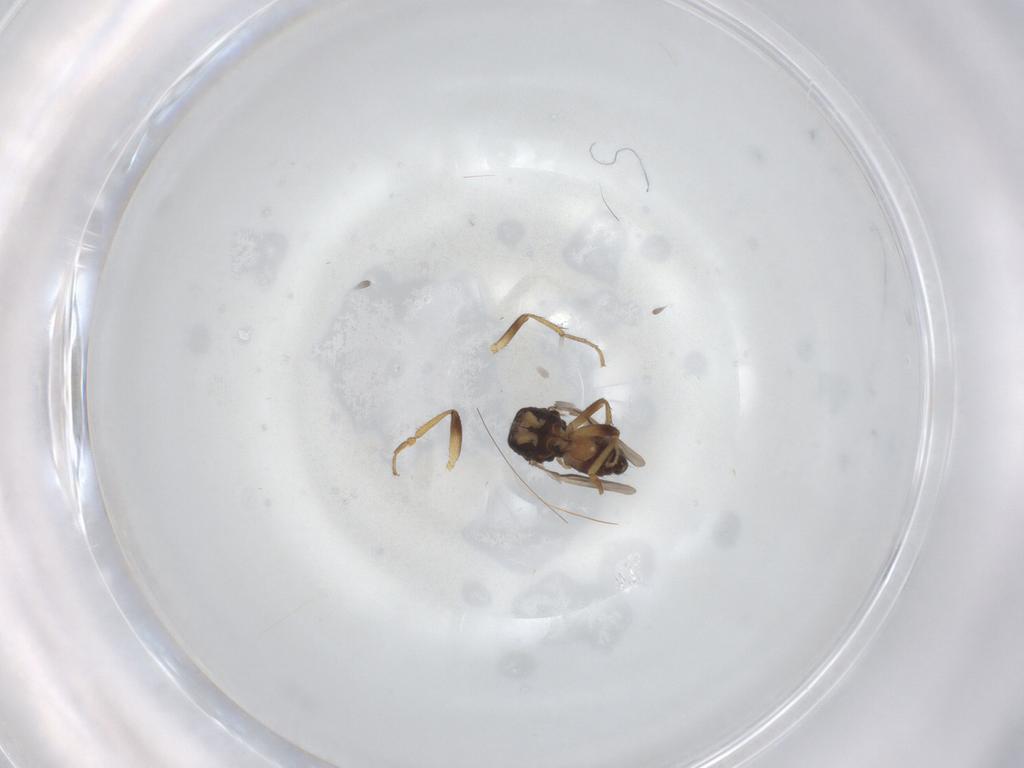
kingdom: Animalia
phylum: Arthropoda
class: Insecta
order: Diptera
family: Sphaeroceridae
